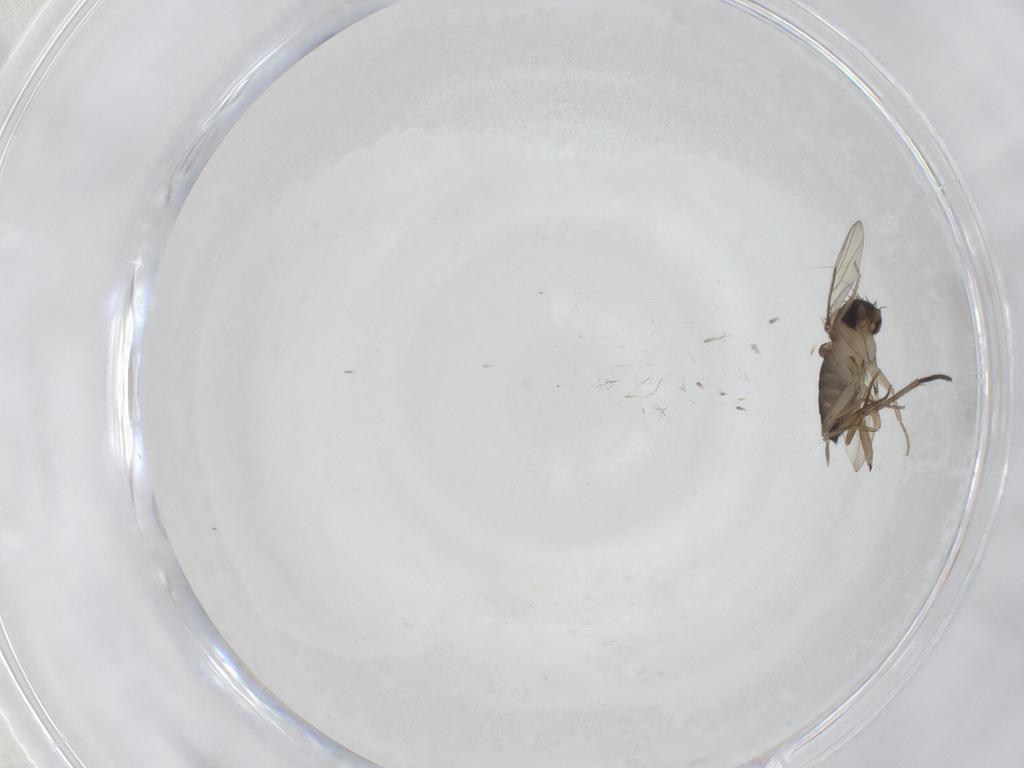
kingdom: Animalia
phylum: Arthropoda
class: Insecta
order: Diptera
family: Sciaridae
